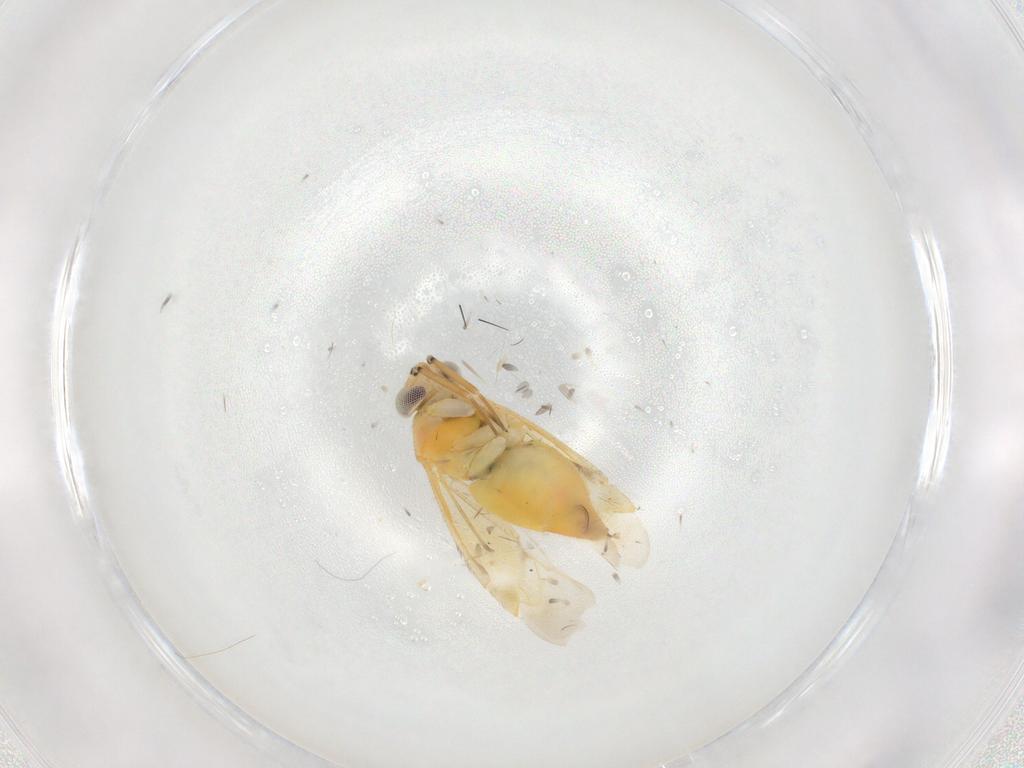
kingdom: Animalia
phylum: Arthropoda
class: Insecta
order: Hemiptera
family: Miridae
